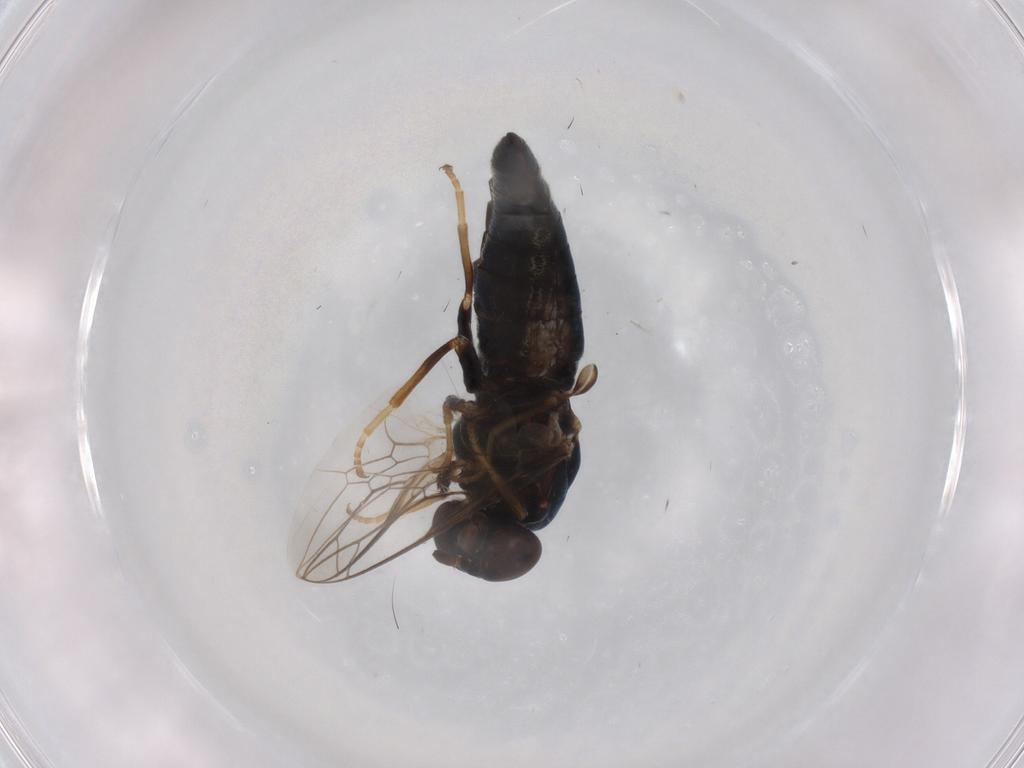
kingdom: Animalia
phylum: Arthropoda
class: Insecta
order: Diptera
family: Scenopinidae
